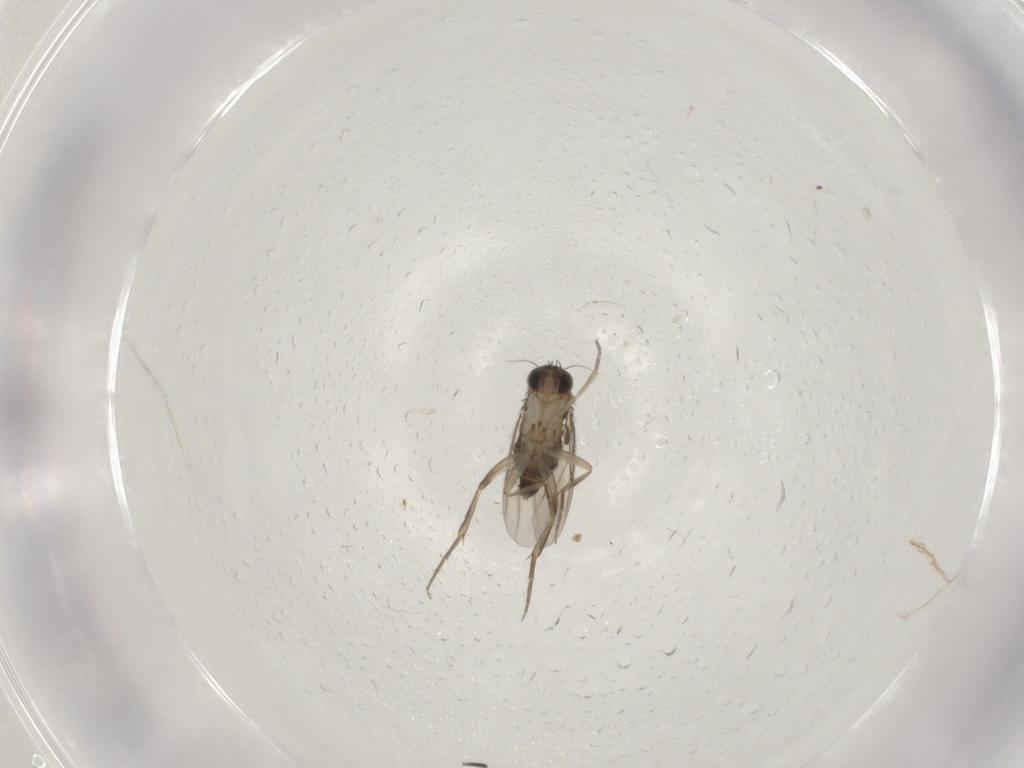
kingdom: Animalia
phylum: Arthropoda
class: Insecta
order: Diptera
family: Phoridae
